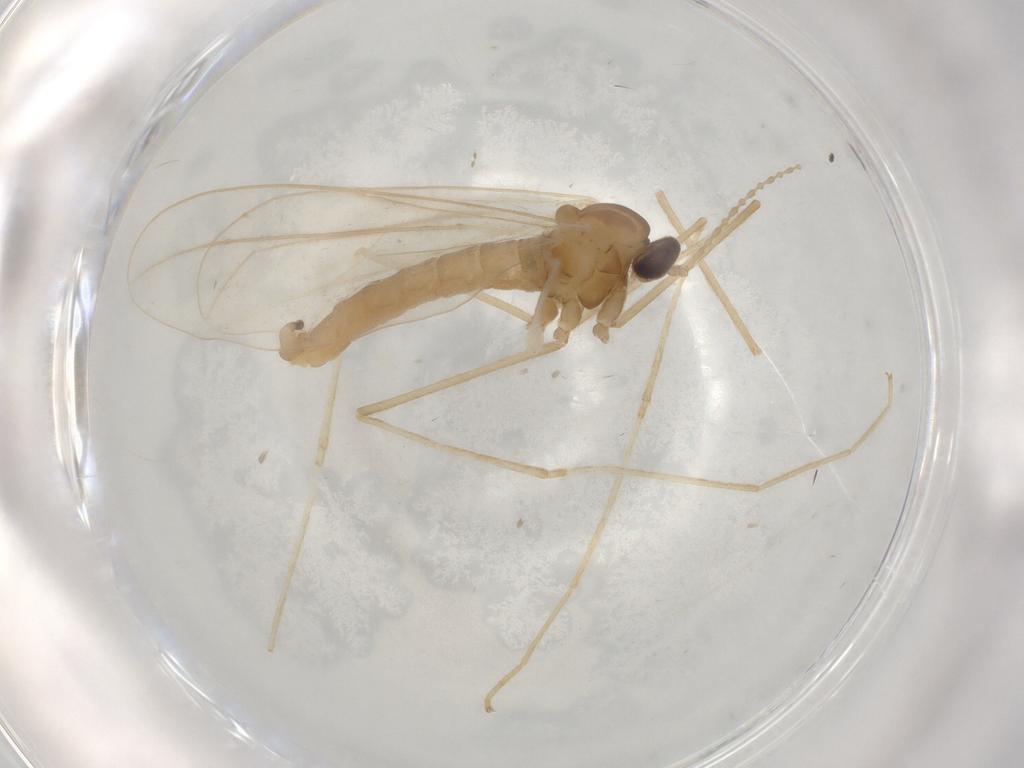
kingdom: Animalia
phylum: Arthropoda
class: Insecta
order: Diptera
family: Cecidomyiidae
